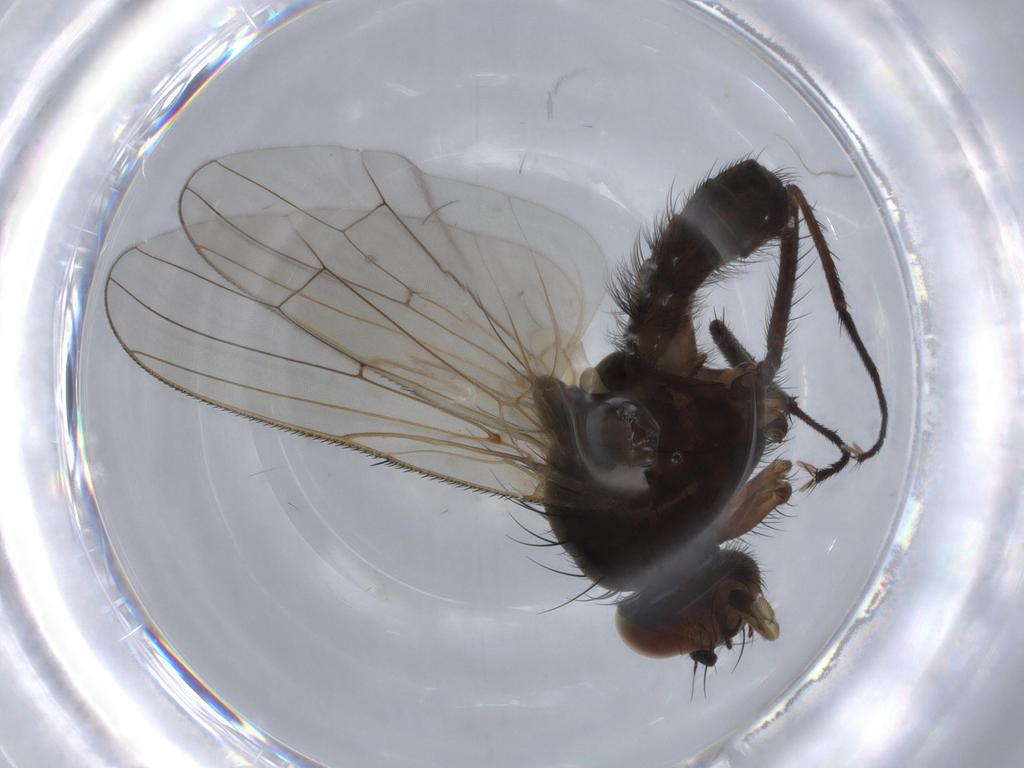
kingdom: Animalia
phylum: Arthropoda
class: Insecta
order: Diptera
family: Anthomyiidae
